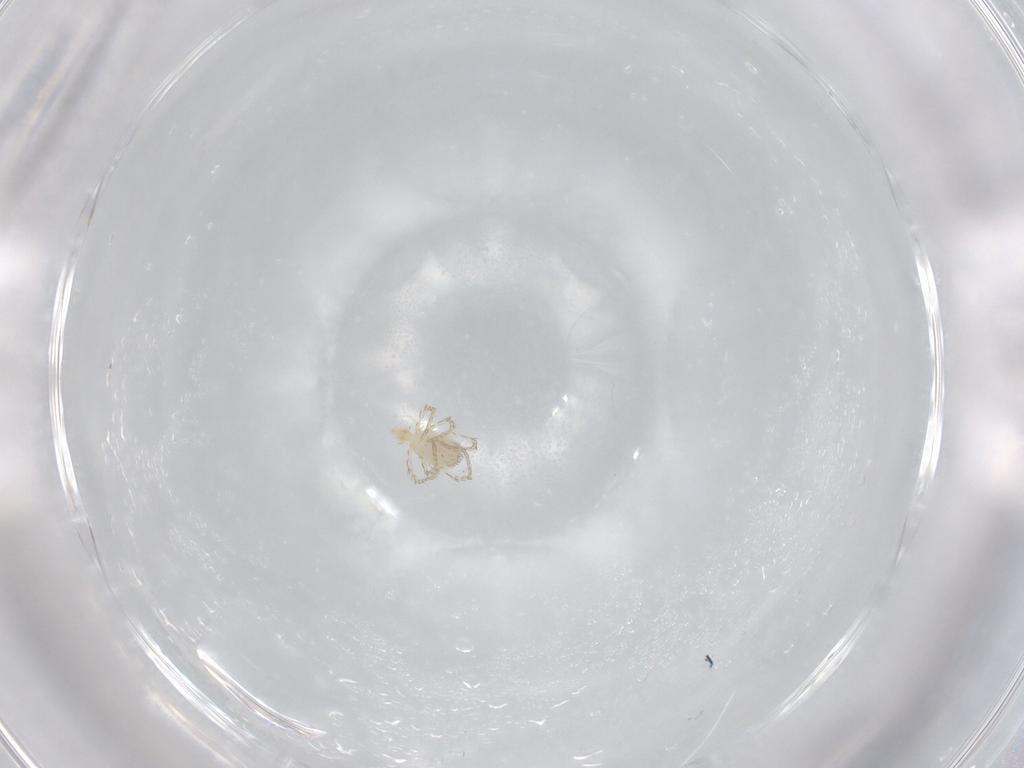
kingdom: Animalia
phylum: Arthropoda
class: Arachnida
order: Trombidiformes
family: Erythraeidae
